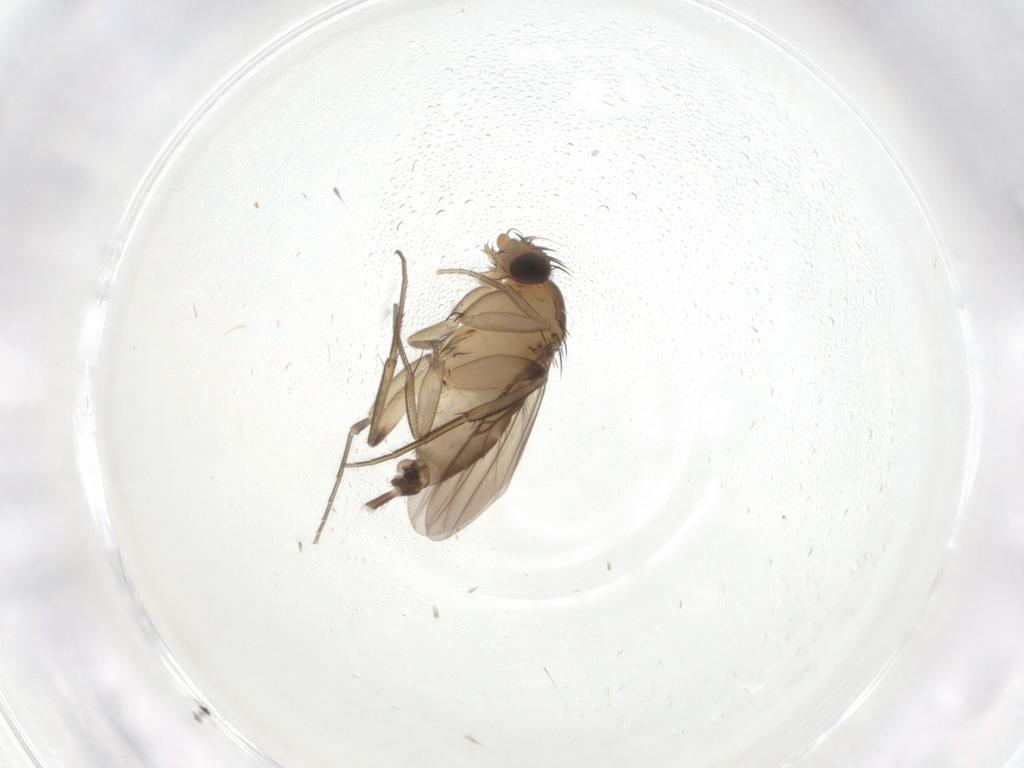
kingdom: Animalia
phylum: Arthropoda
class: Insecta
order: Diptera
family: Phoridae
